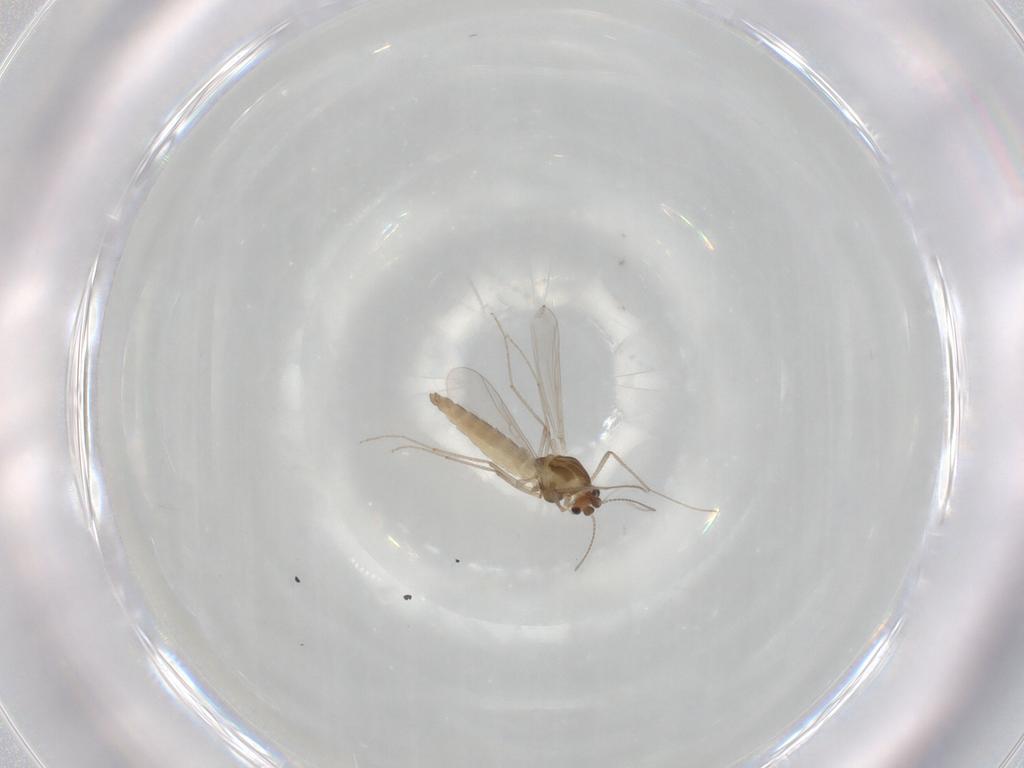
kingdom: Animalia
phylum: Arthropoda
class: Insecta
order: Diptera
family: Chironomidae
